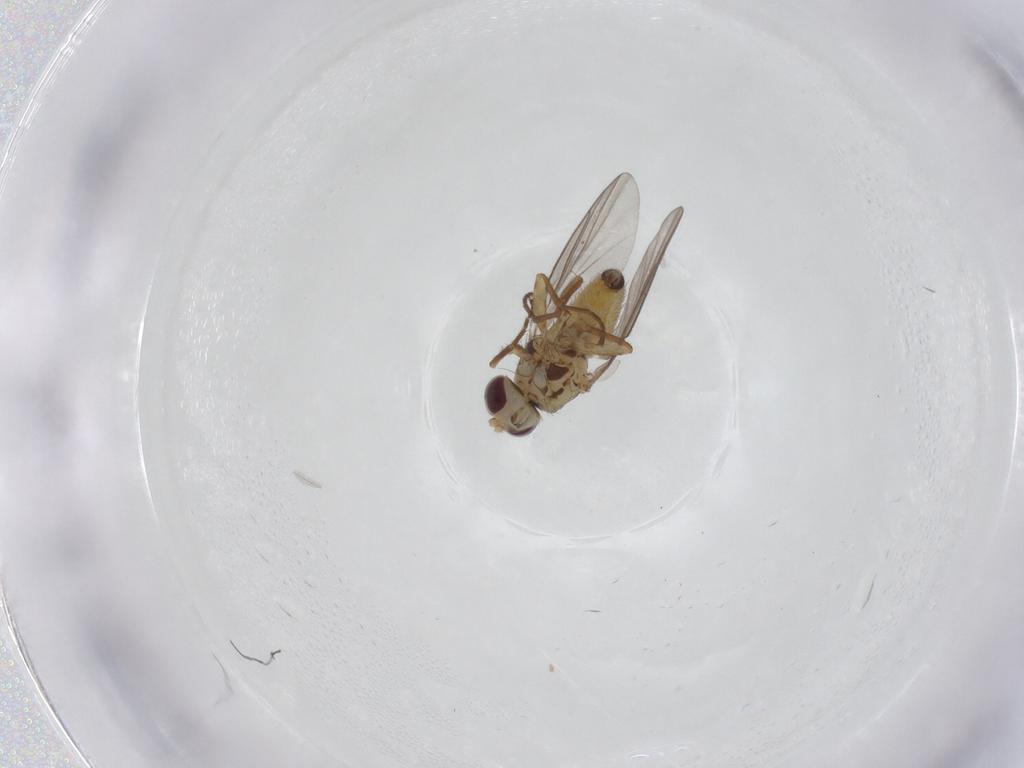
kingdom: Animalia
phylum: Arthropoda
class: Insecta
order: Diptera
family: Agromyzidae
